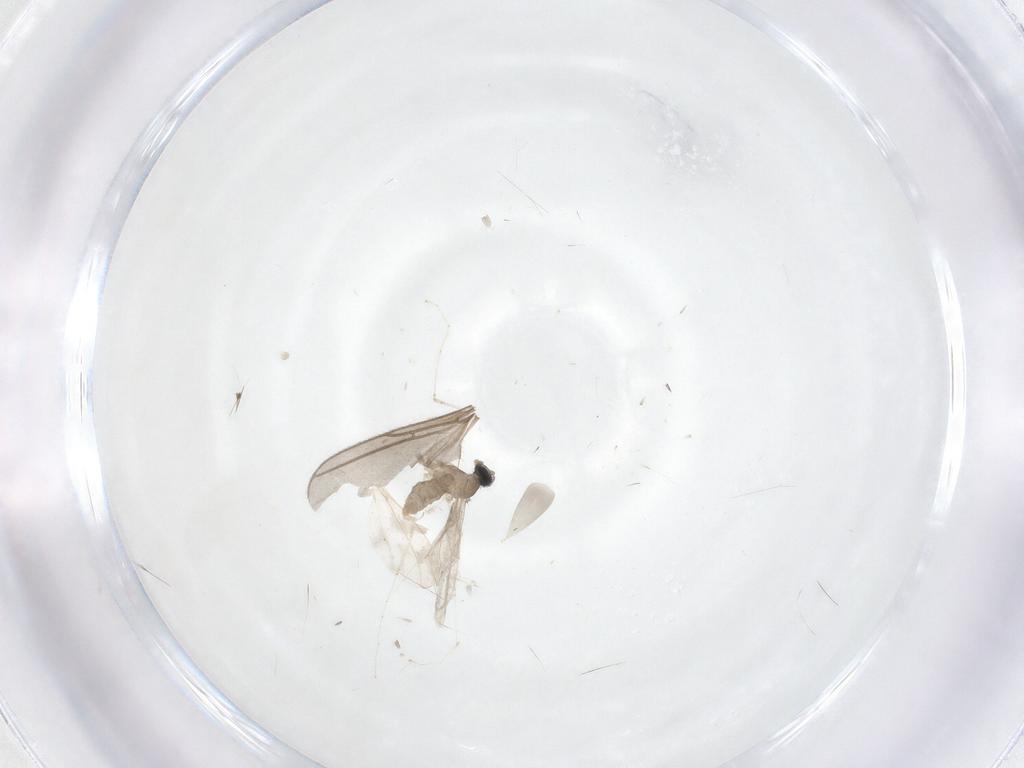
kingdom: Animalia
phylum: Arthropoda
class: Insecta
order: Diptera
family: Cecidomyiidae
